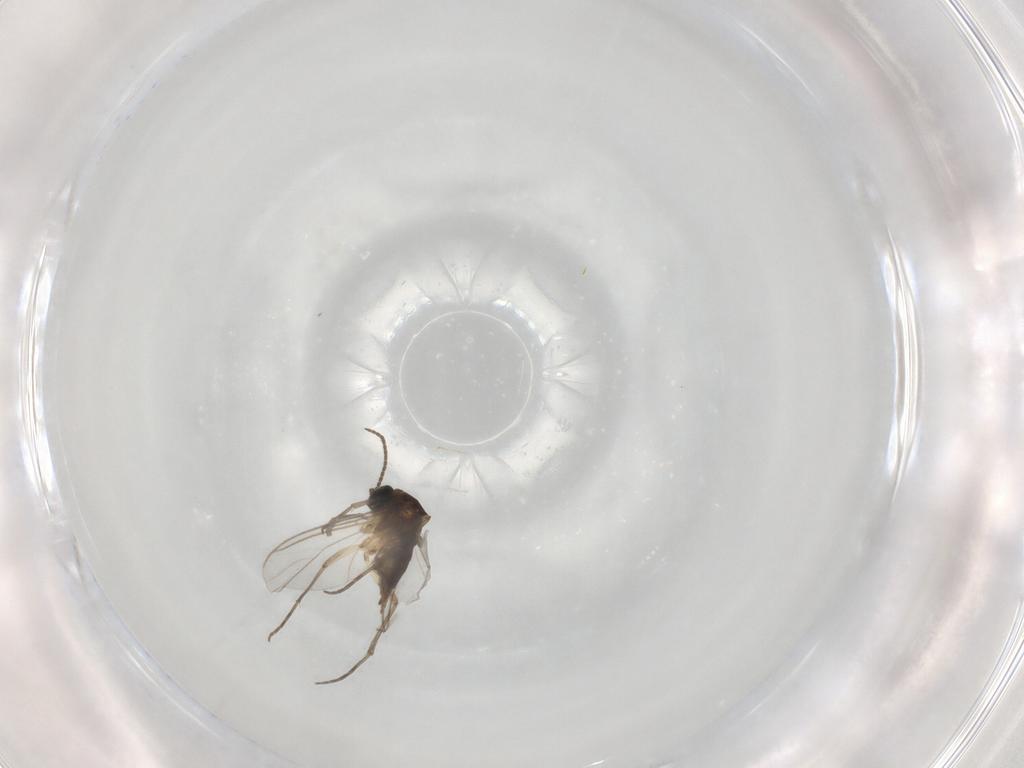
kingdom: Animalia
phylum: Arthropoda
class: Insecta
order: Diptera
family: Sciaridae
